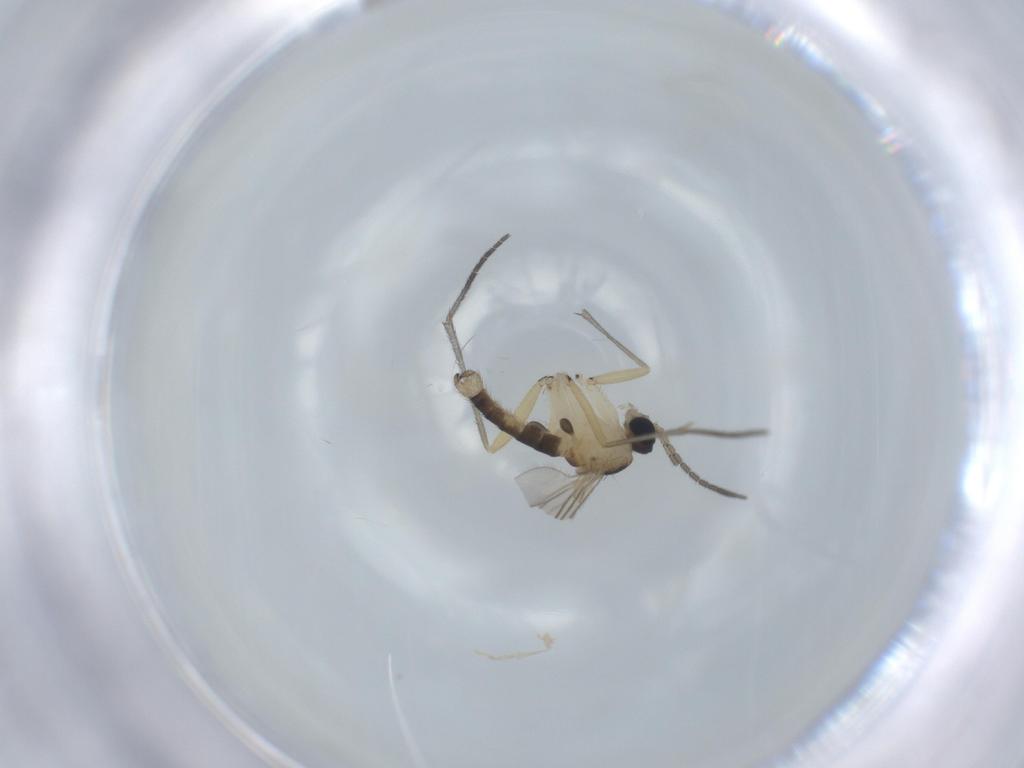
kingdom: Animalia
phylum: Arthropoda
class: Insecta
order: Diptera
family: Sciaridae
